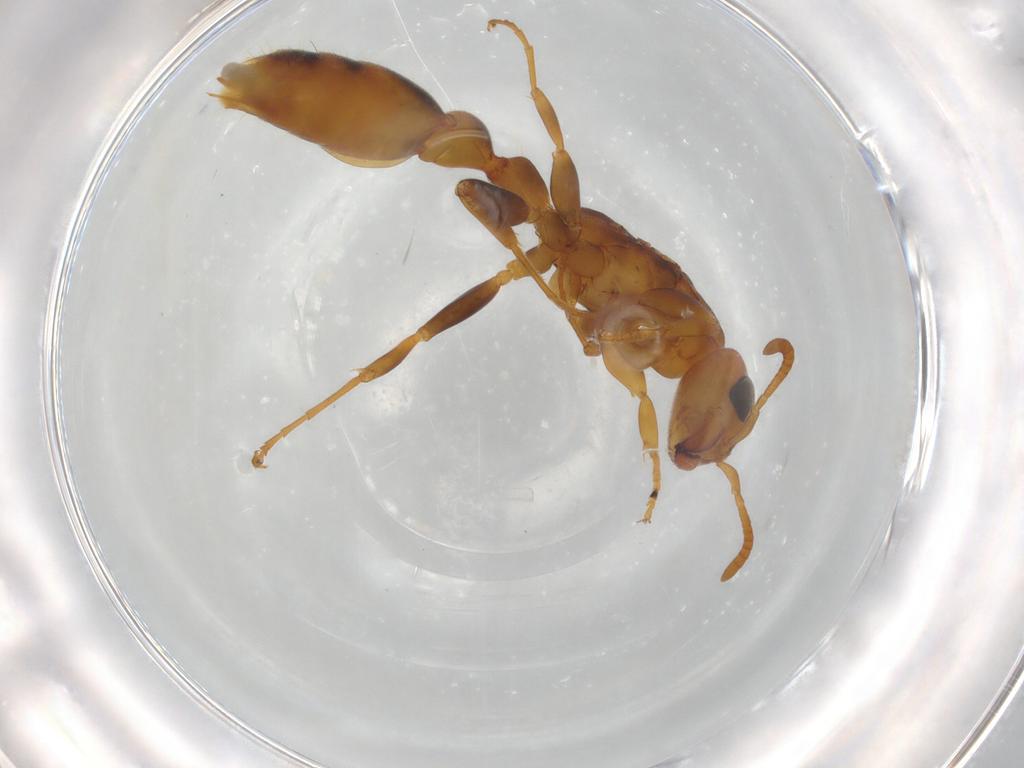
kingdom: Animalia
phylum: Arthropoda
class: Insecta
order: Hymenoptera
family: Formicidae
